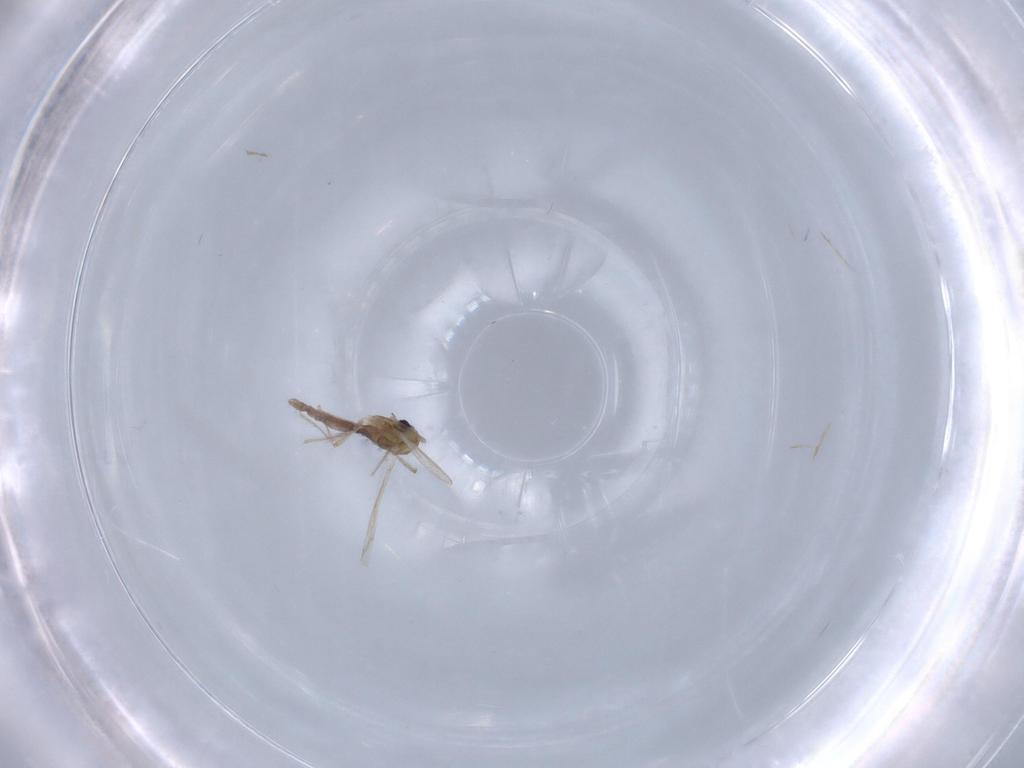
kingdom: Animalia
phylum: Arthropoda
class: Insecta
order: Diptera
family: Chironomidae
